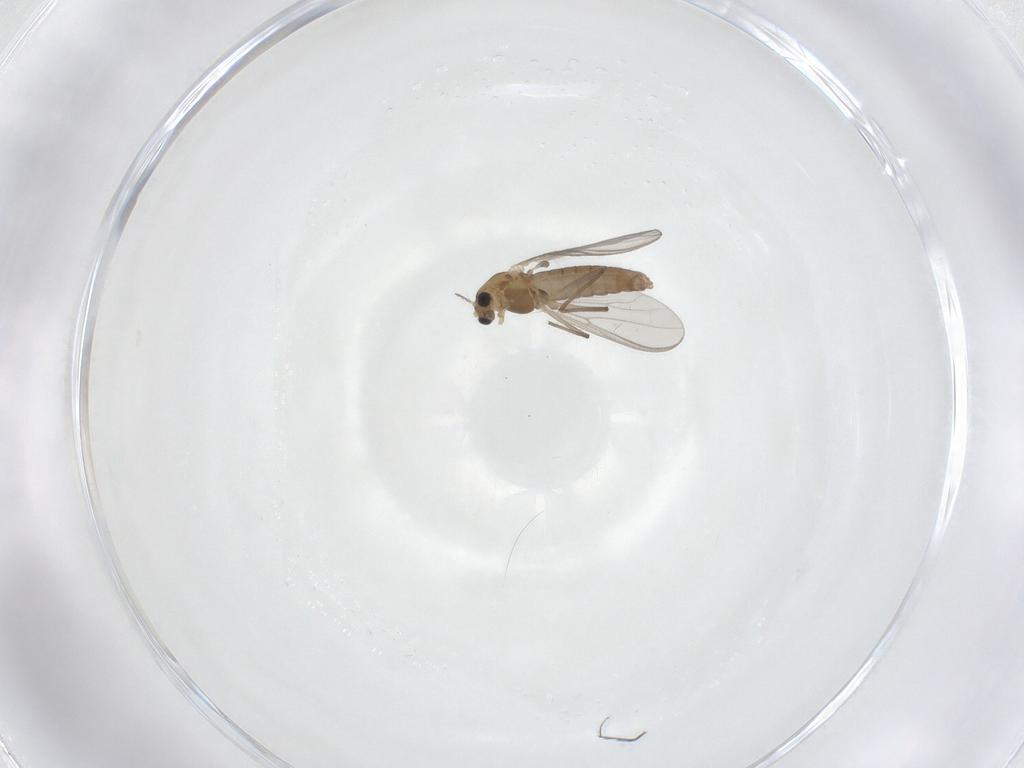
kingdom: Animalia
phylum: Arthropoda
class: Insecta
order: Diptera
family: Chironomidae
